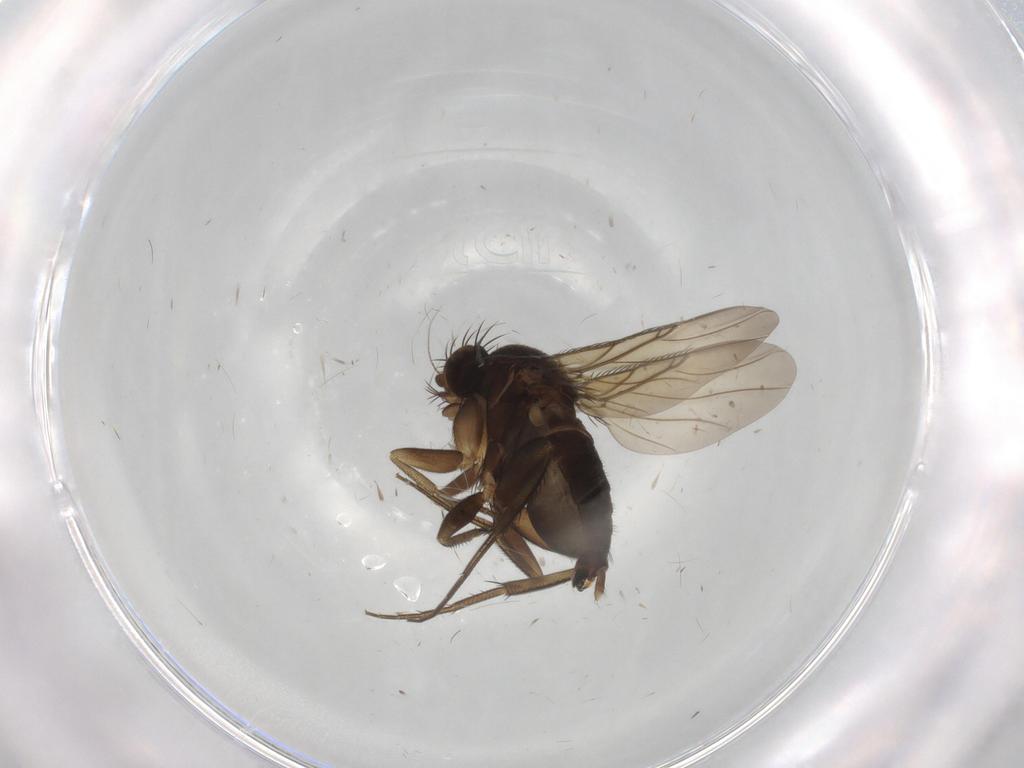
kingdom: Animalia
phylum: Arthropoda
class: Insecta
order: Diptera
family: Phoridae
